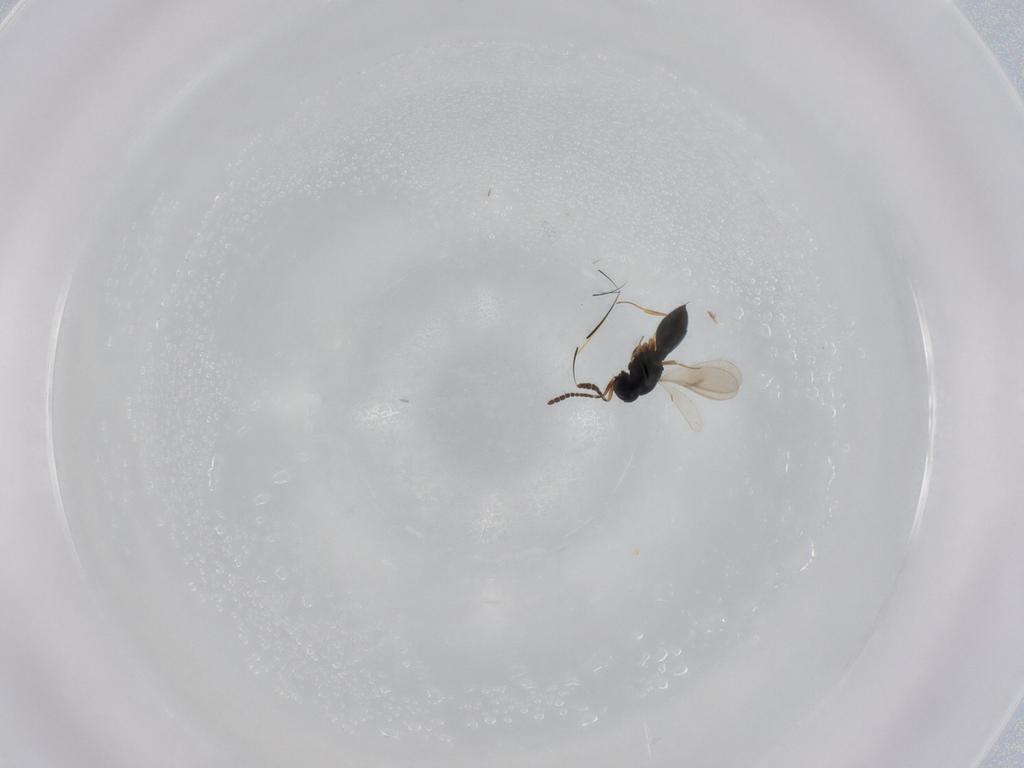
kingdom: Animalia
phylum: Arthropoda
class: Insecta
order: Hymenoptera
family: Scelionidae
